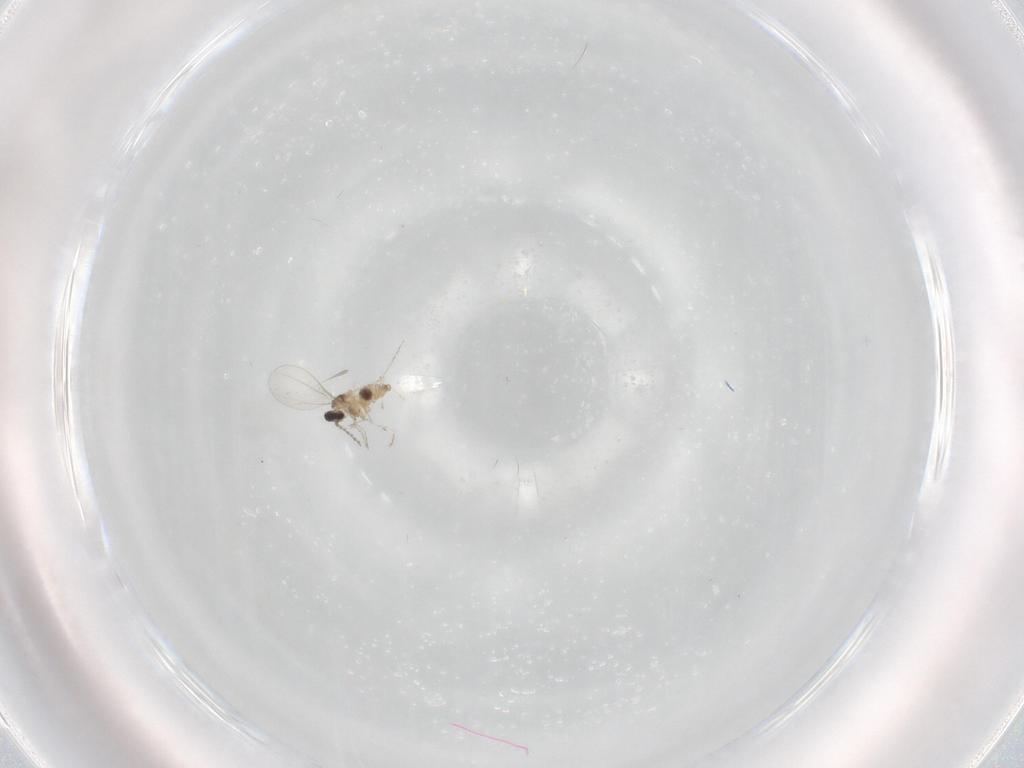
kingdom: Animalia
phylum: Arthropoda
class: Insecta
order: Diptera
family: Cecidomyiidae
